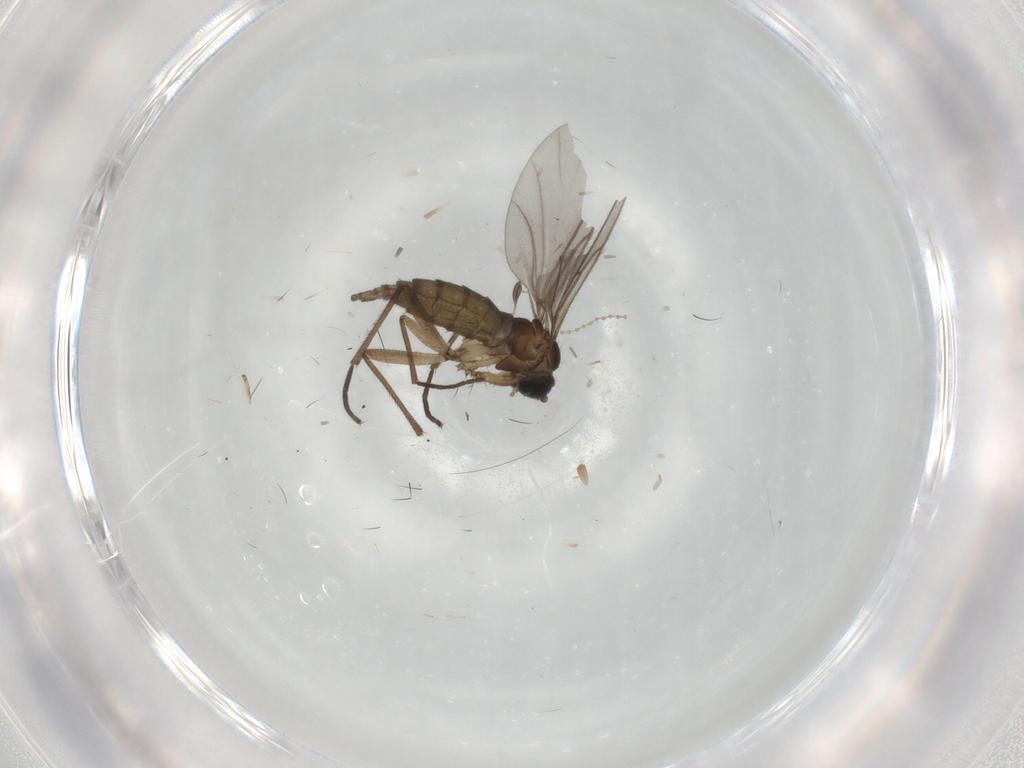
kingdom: Animalia
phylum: Arthropoda
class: Insecta
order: Diptera
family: Sciaridae
